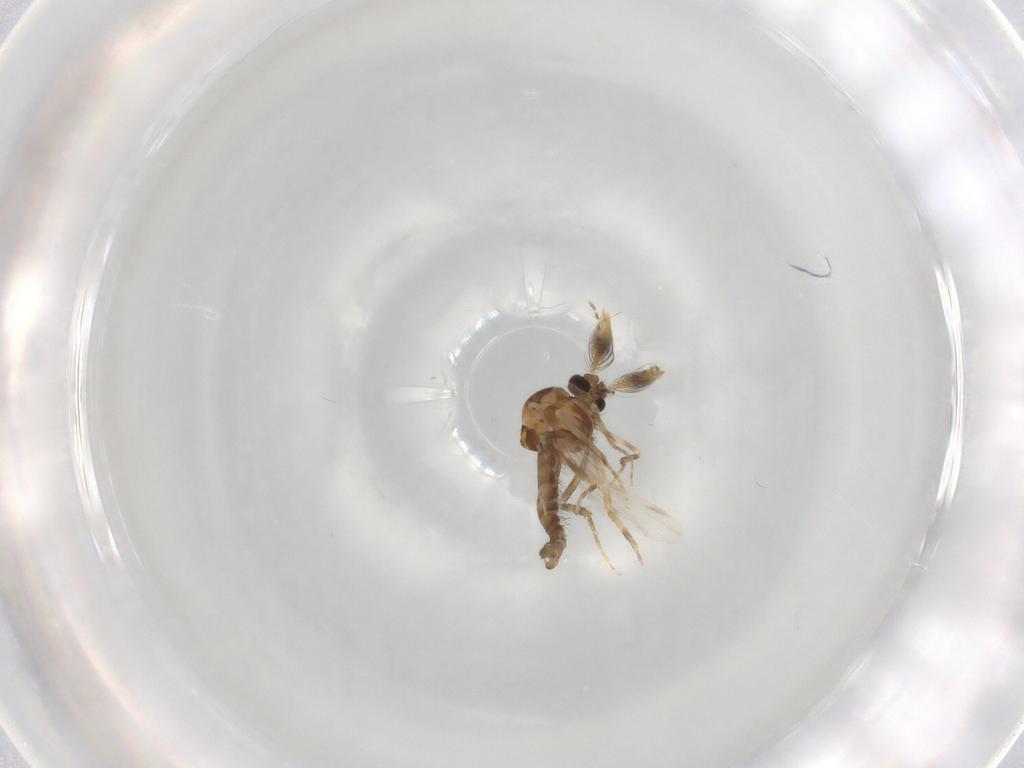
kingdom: Animalia
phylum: Arthropoda
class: Insecta
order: Diptera
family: Ceratopogonidae
